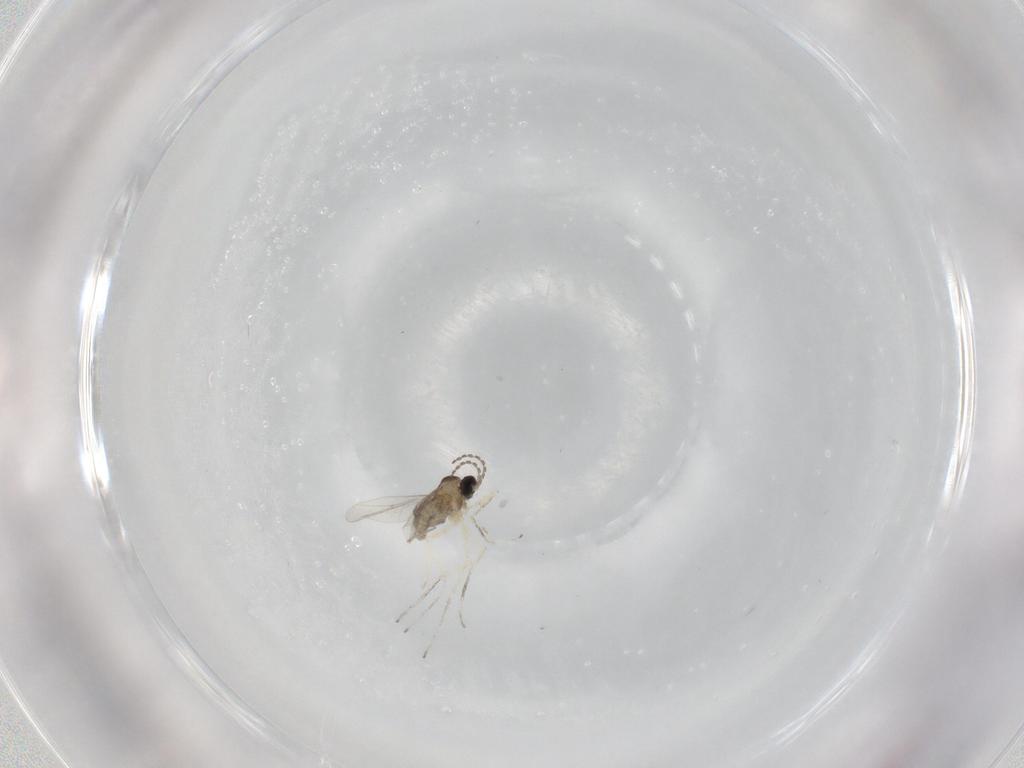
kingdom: Animalia
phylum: Arthropoda
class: Insecta
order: Diptera
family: Cecidomyiidae
